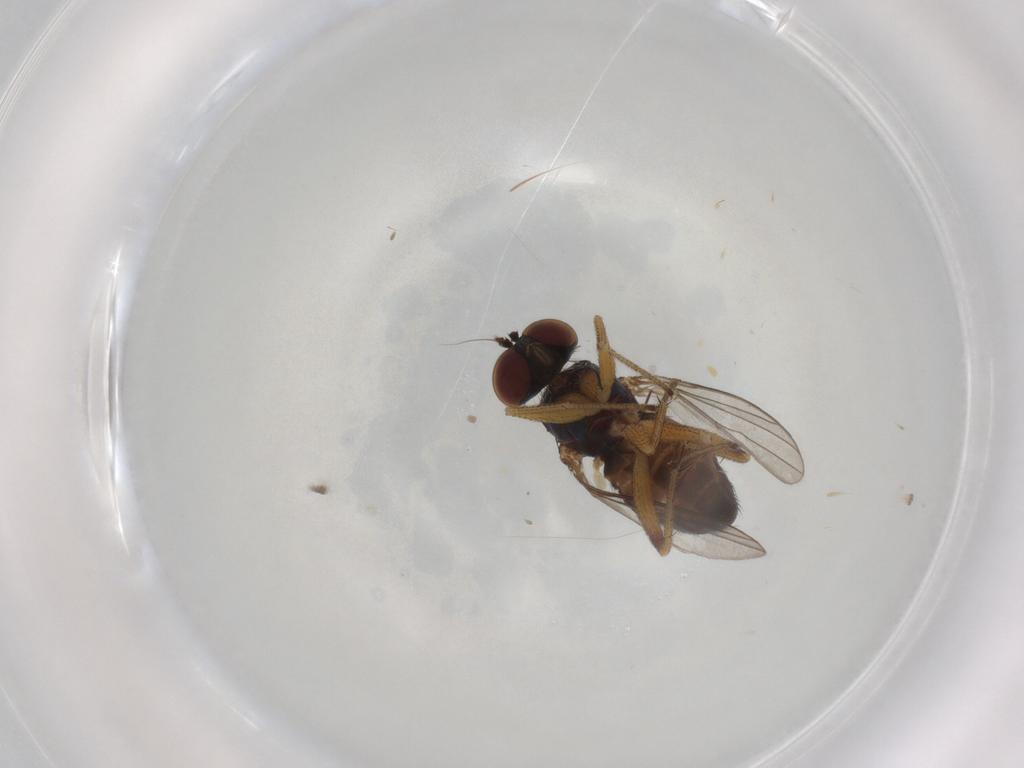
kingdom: Animalia
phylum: Arthropoda
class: Insecta
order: Diptera
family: Dolichopodidae
